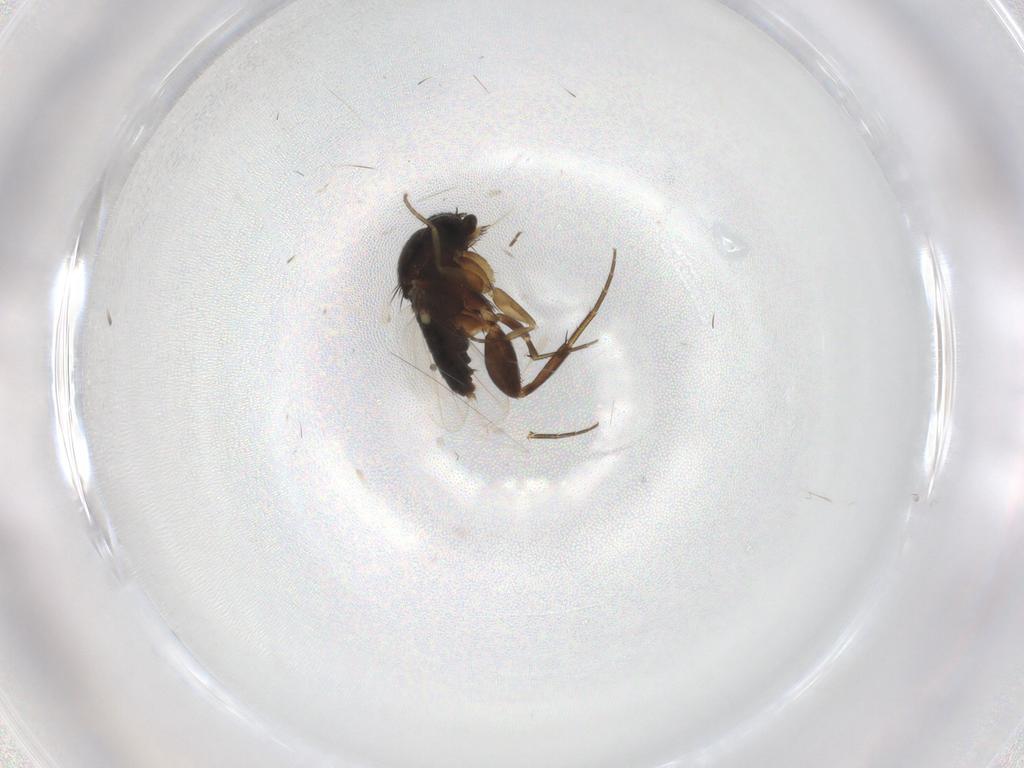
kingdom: Animalia
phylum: Arthropoda
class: Insecta
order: Diptera
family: Phoridae
